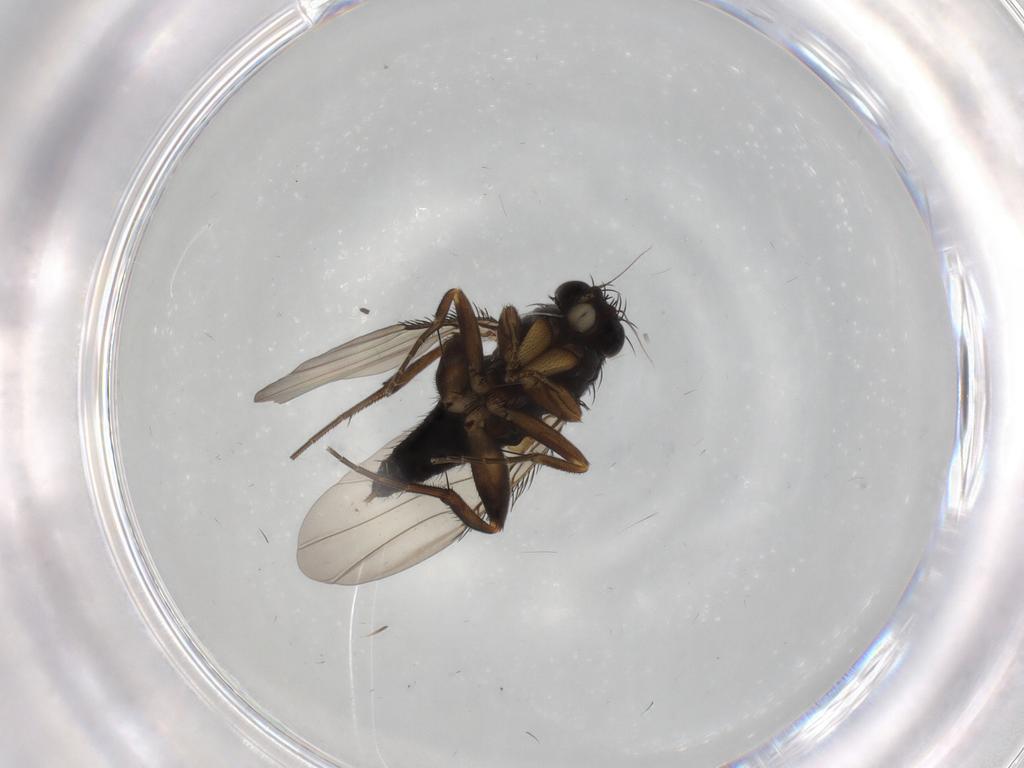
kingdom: Animalia
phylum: Arthropoda
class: Insecta
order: Diptera
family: Phoridae
